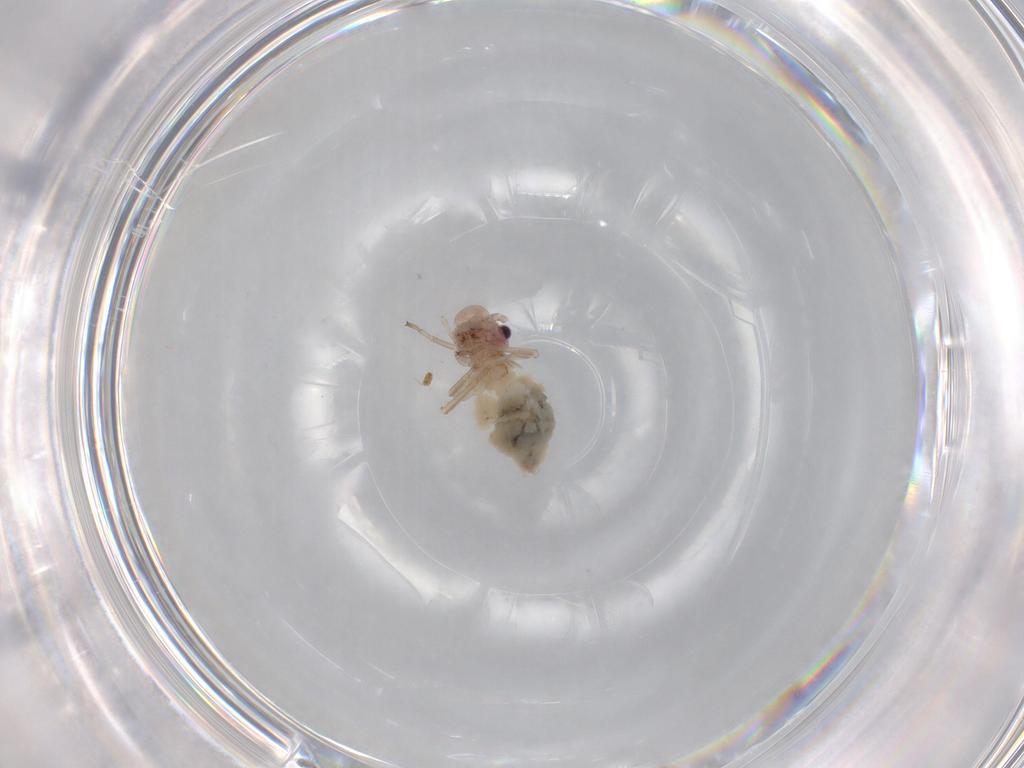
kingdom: Animalia
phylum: Arthropoda
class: Insecta
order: Psocodea
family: Stenopsocidae
